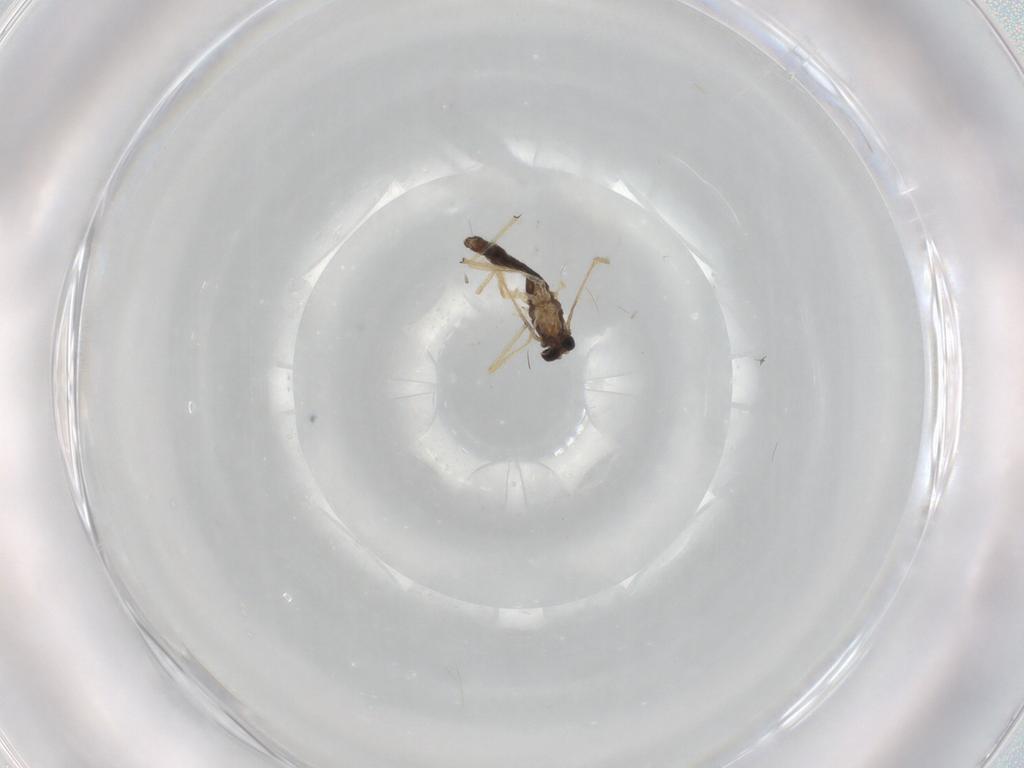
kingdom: Animalia
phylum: Arthropoda
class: Insecta
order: Diptera
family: Chironomidae
